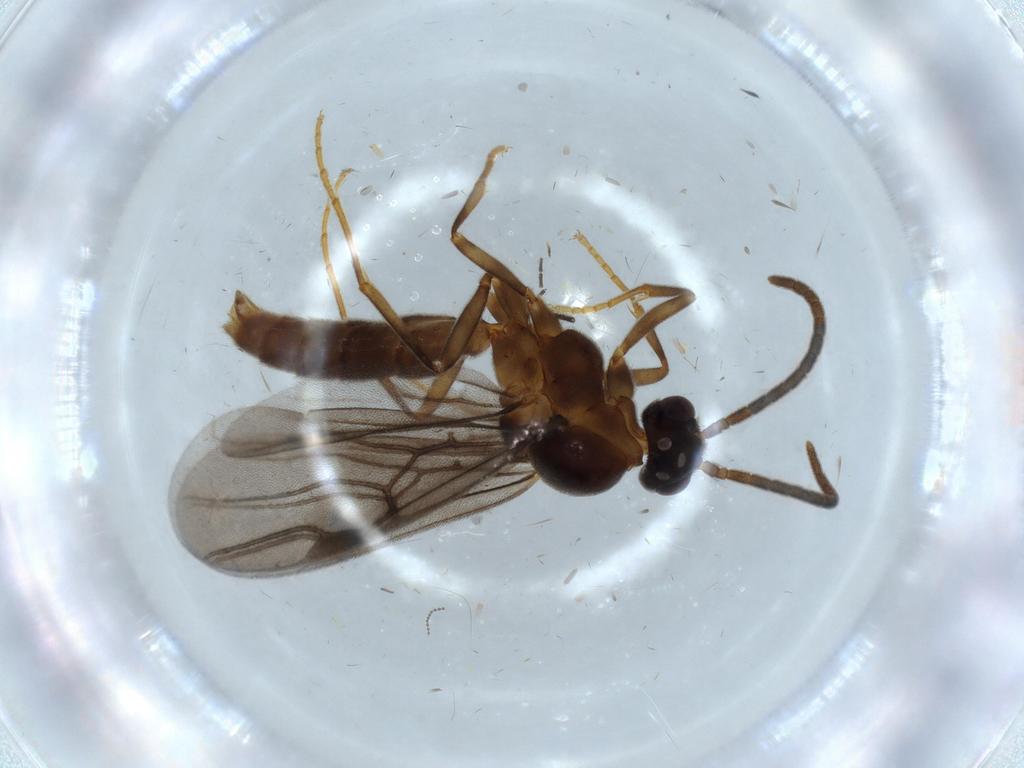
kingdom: Animalia
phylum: Arthropoda
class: Insecta
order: Hymenoptera
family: Formicidae
